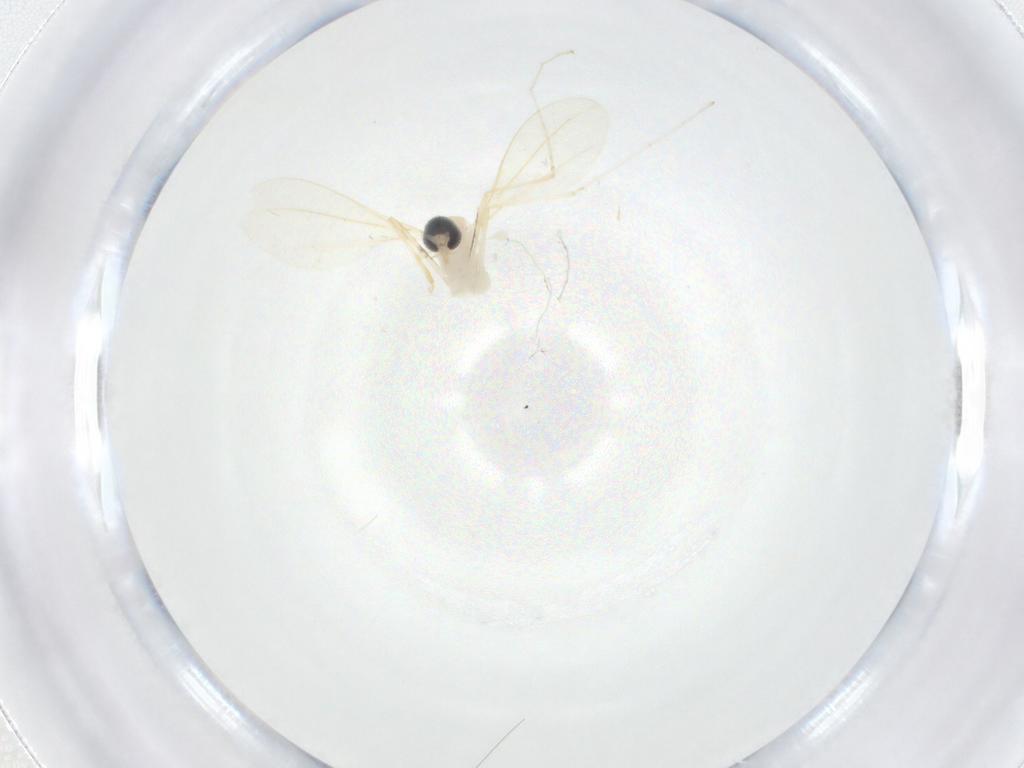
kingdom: Animalia
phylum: Arthropoda
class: Insecta
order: Diptera
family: Cecidomyiidae
